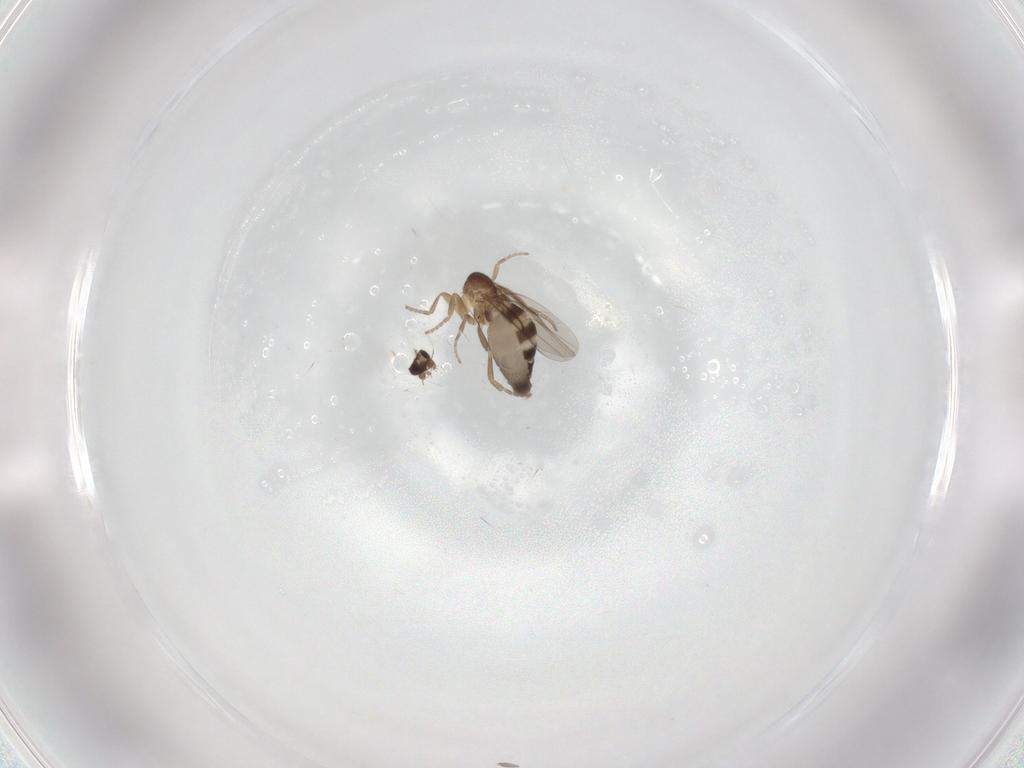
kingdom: Animalia
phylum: Arthropoda
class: Insecta
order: Diptera
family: Phoridae
